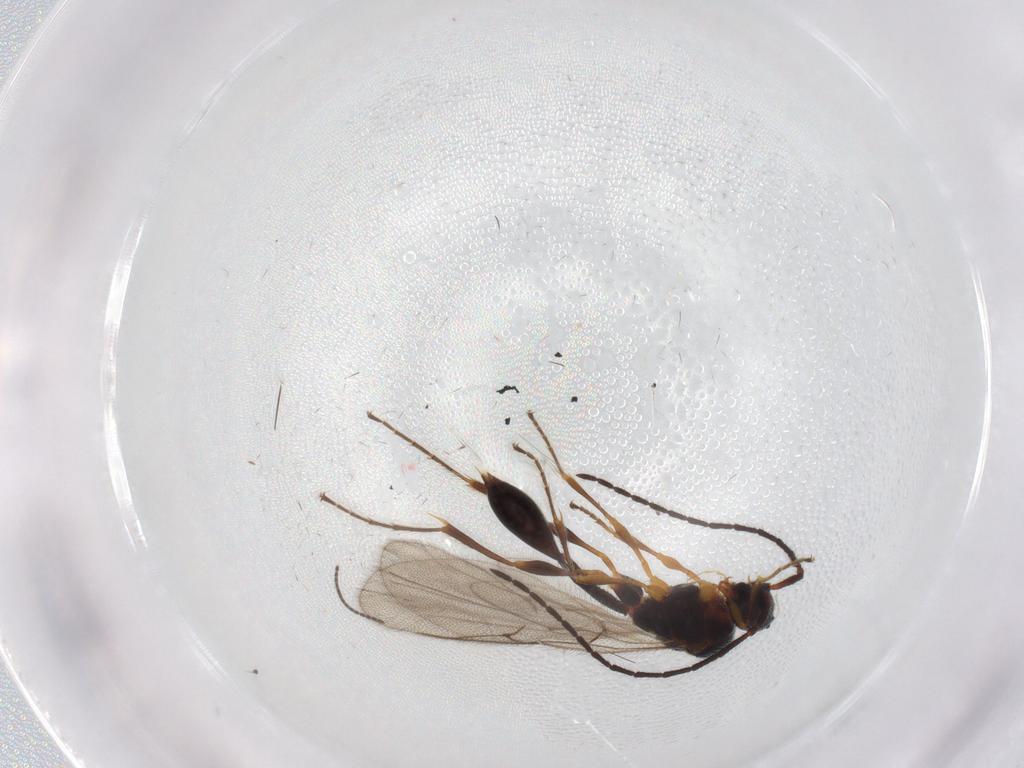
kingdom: Animalia
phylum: Arthropoda
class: Insecta
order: Hymenoptera
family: Diapriidae
